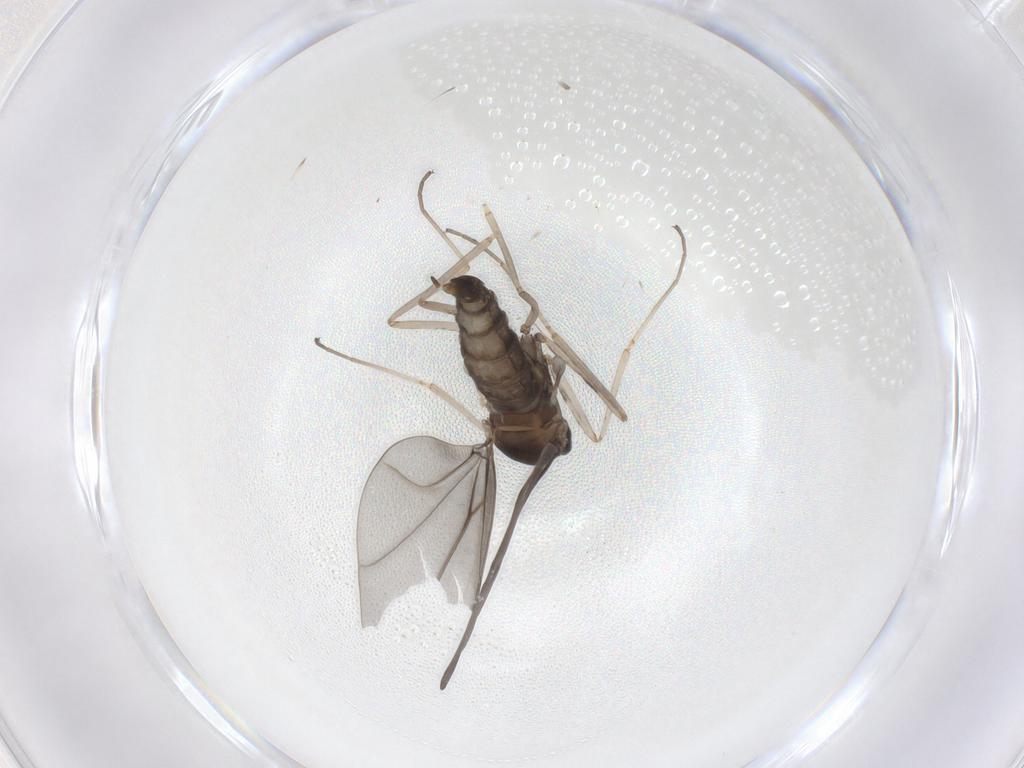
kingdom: Animalia
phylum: Arthropoda
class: Insecta
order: Diptera
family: Cecidomyiidae
